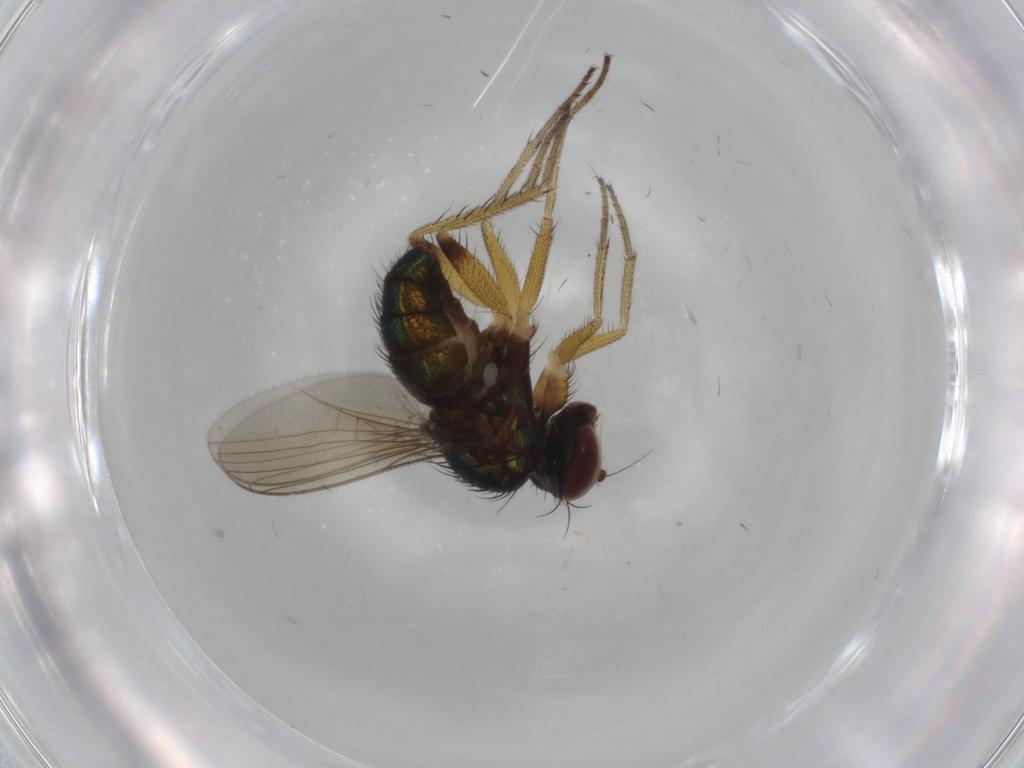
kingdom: Animalia
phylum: Arthropoda
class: Insecta
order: Diptera
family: Dolichopodidae
